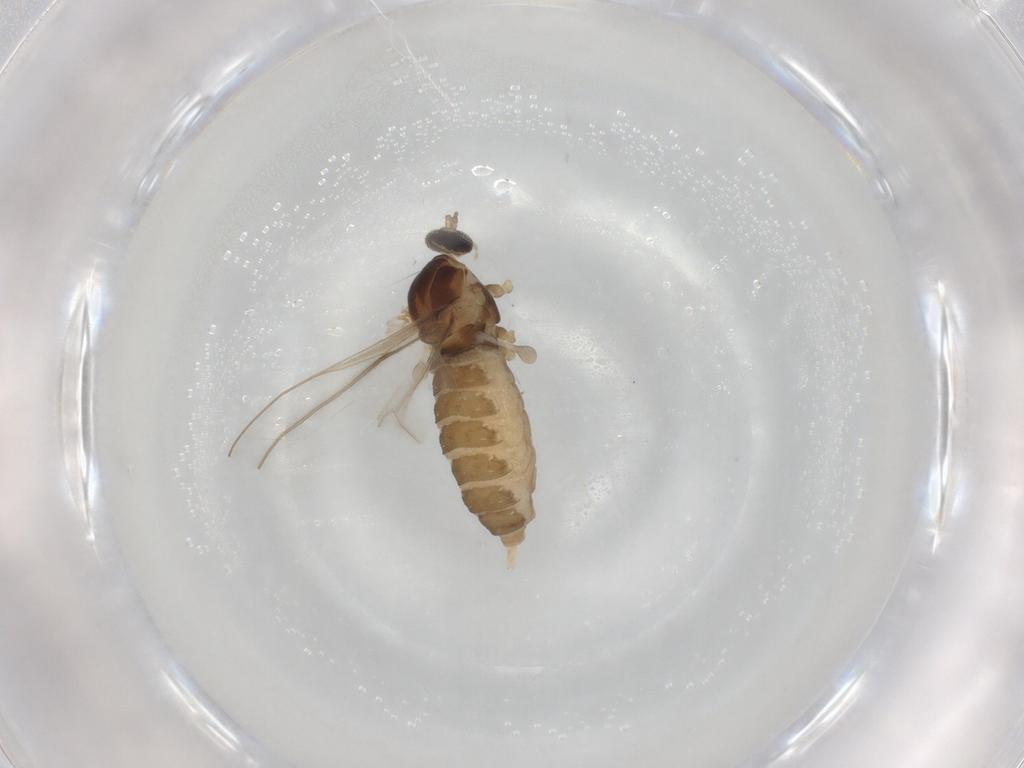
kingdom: Animalia
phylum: Arthropoda
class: Insecta
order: Diptera
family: Cecidomyiidae
